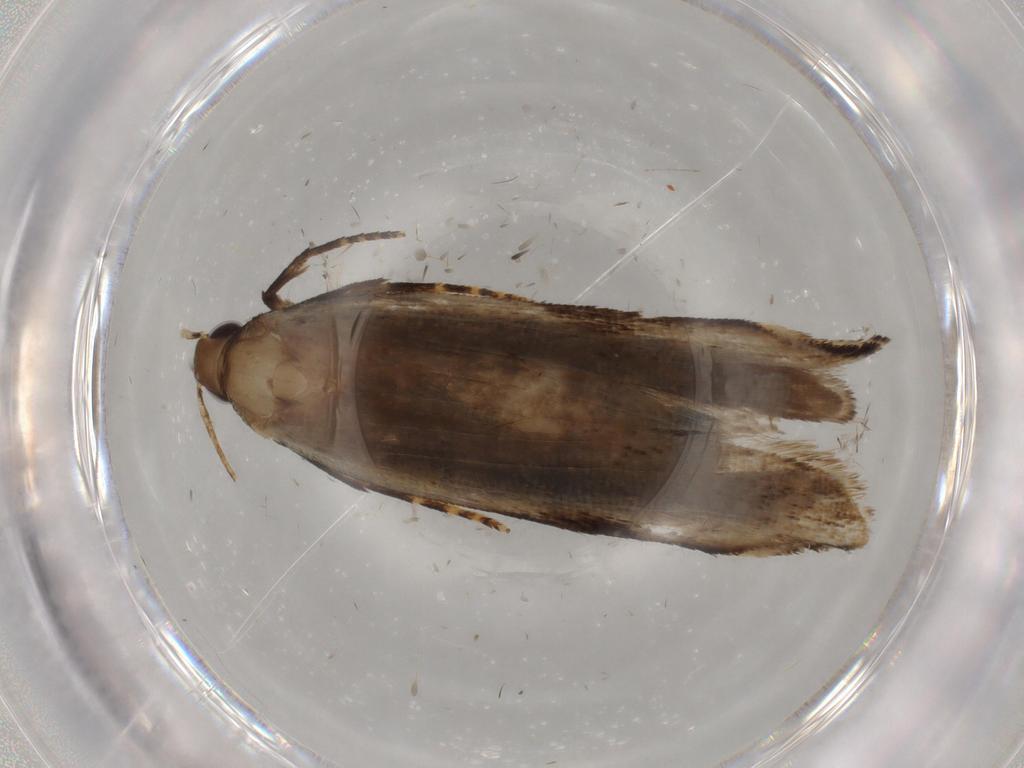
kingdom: Animalia
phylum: Arthropoda
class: Insecta
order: Lepidoptera
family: Gelechiidae
